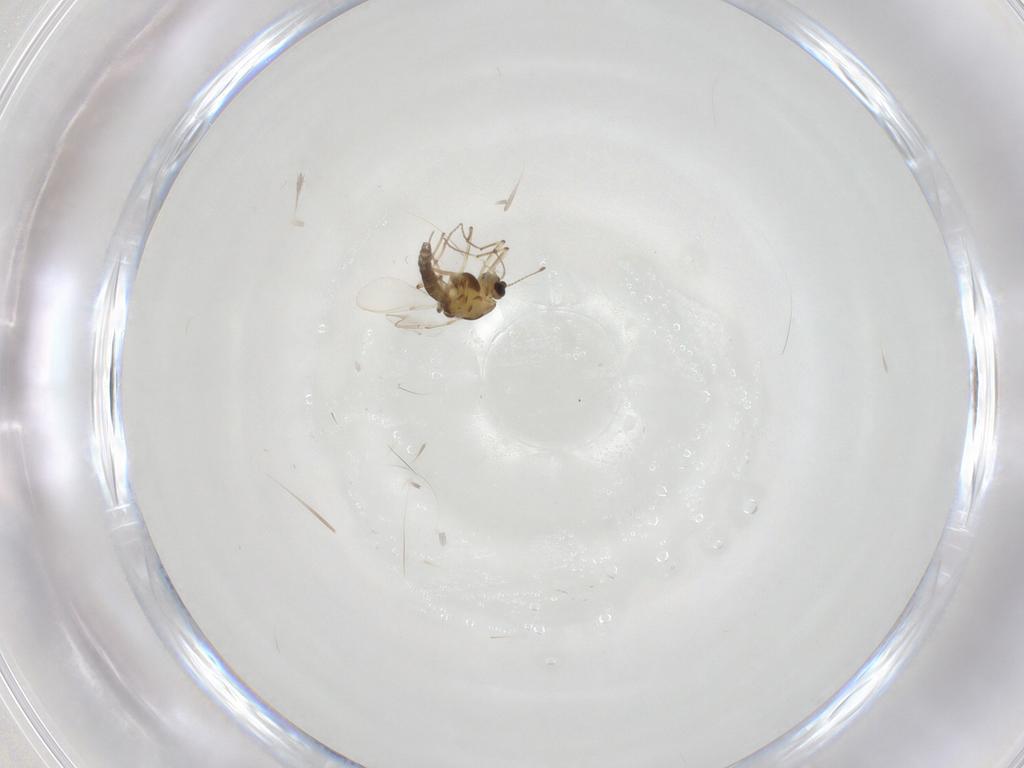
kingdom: Animalia
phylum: Arthropoda
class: Insecta
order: Diptera
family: Chironomidae
